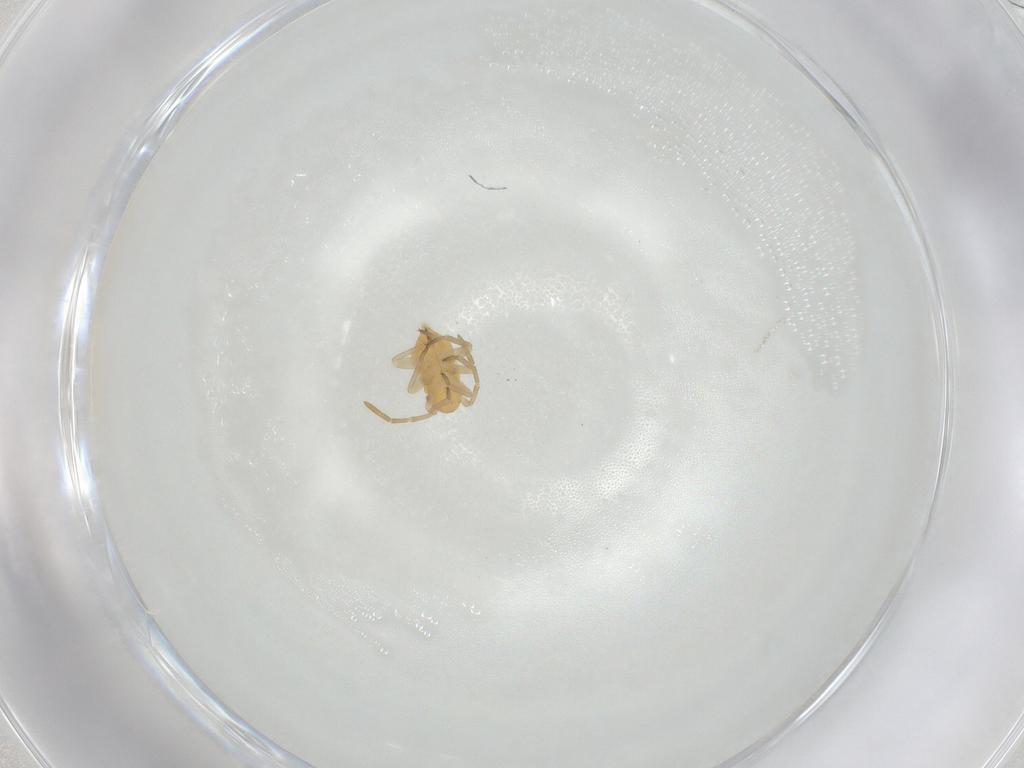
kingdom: Animalia
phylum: Arthropoda
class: Insecta
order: Hemiptera
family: Miridae
